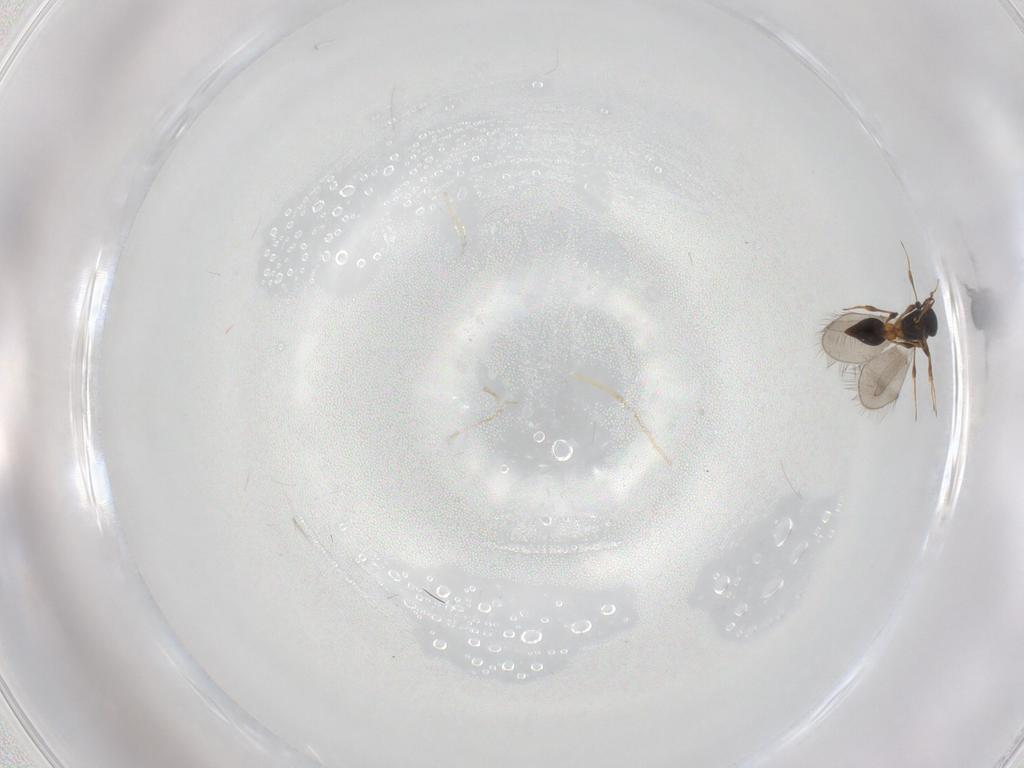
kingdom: Animalia
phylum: Arthropoda
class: Insecta
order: Hymenoptera
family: Platygastridae
